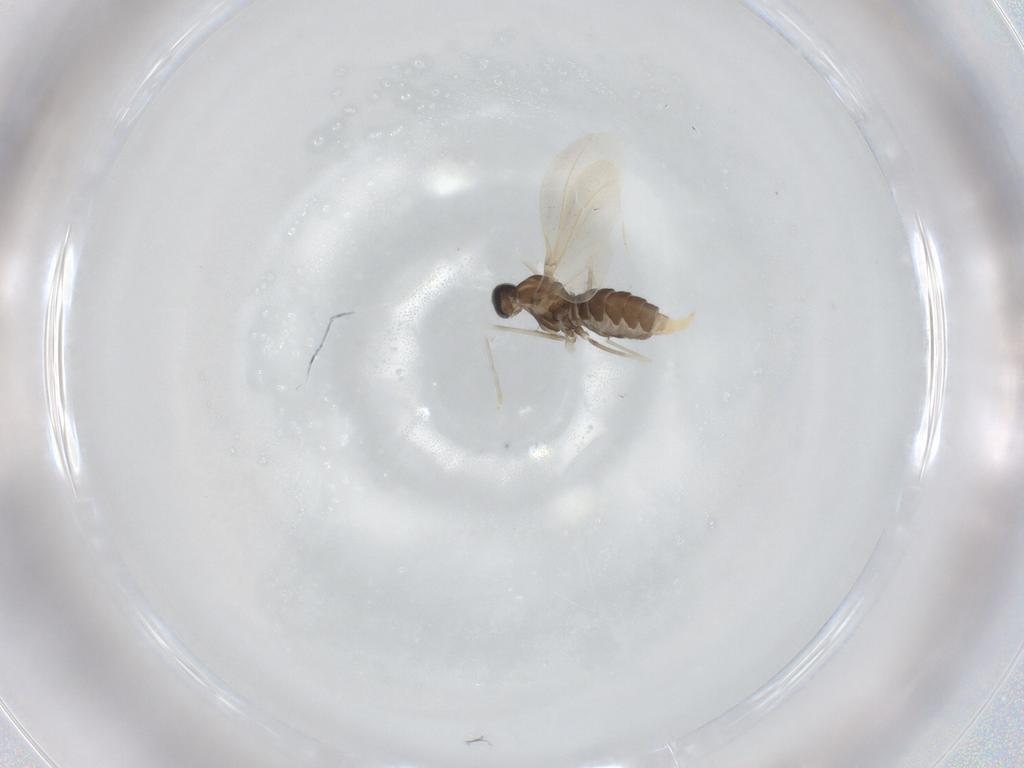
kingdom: Animalia
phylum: Arthropoda
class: Insecta
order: Diptera
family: Cecidomyiidae
